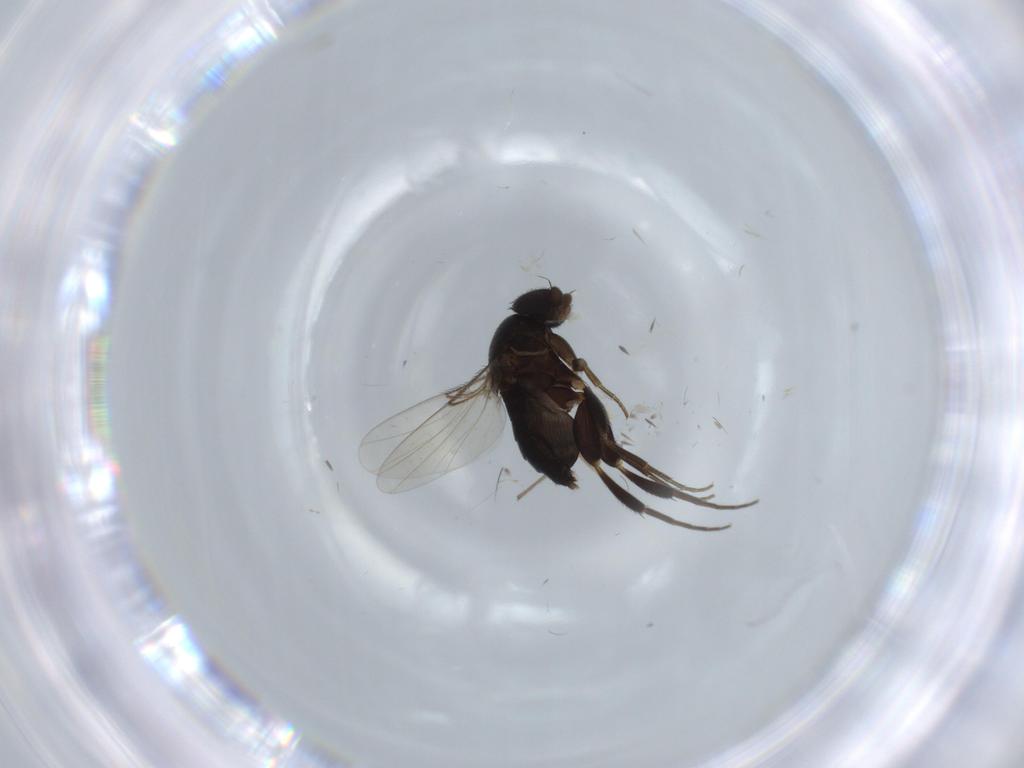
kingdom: Animalia
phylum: Arthropoda
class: Insecta
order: Diptera
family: Phoridae
